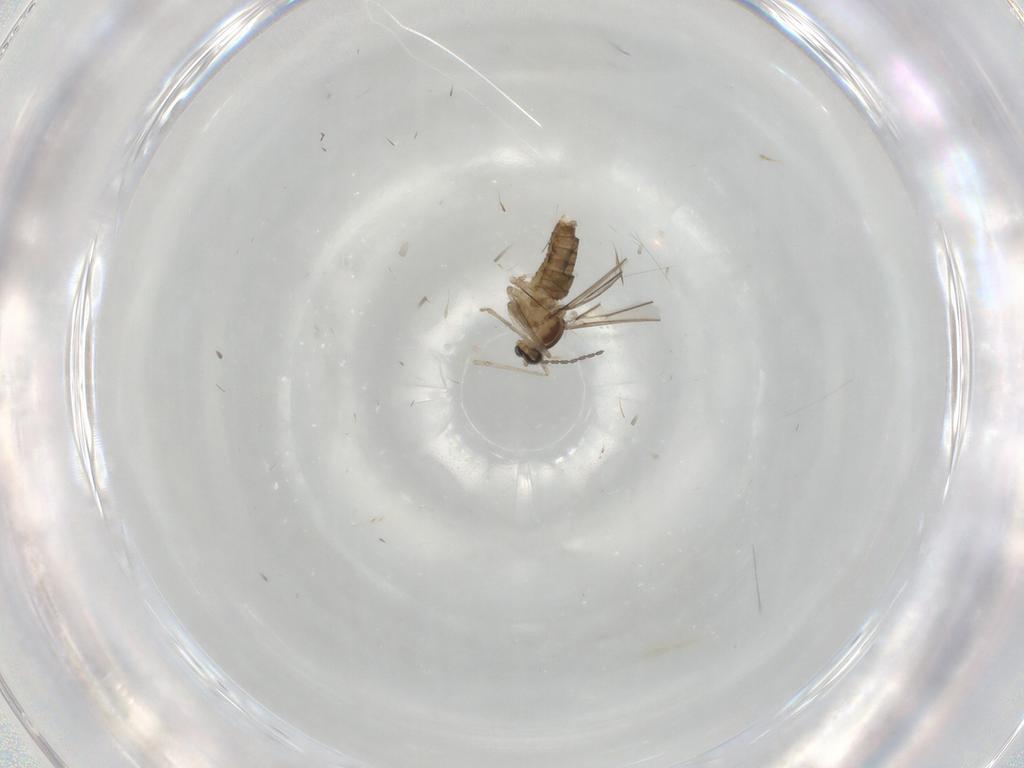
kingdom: Animalia
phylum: Arthropoda
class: Insecta
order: Diptera
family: Cecidomyiidae
